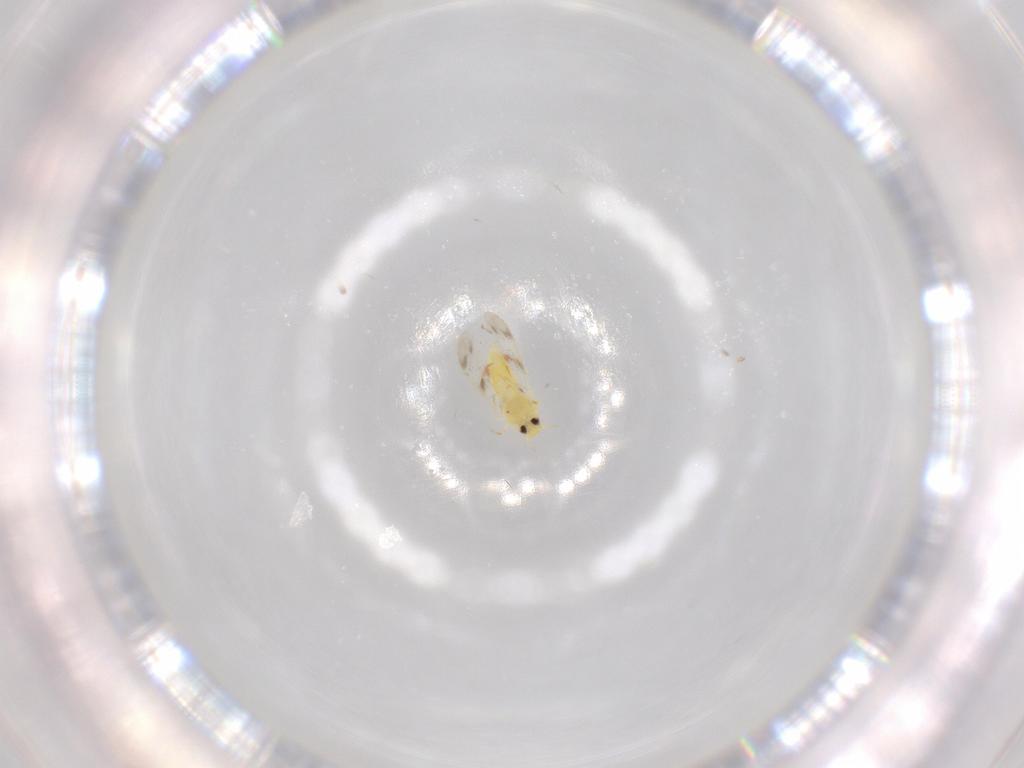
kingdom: Animalia
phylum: Arthropoda
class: Insecta
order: Hemiptera
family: Aleyrodidae
